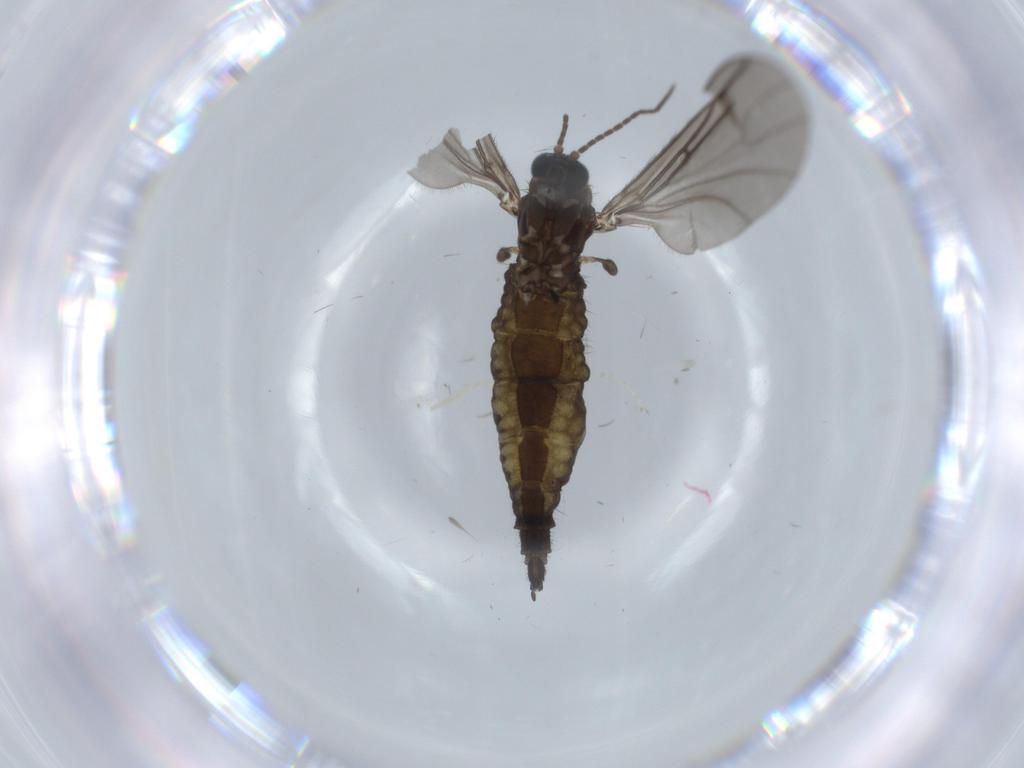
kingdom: Animalia
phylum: Arthropoda
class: Insecta
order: Diptera
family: Sciaridae
